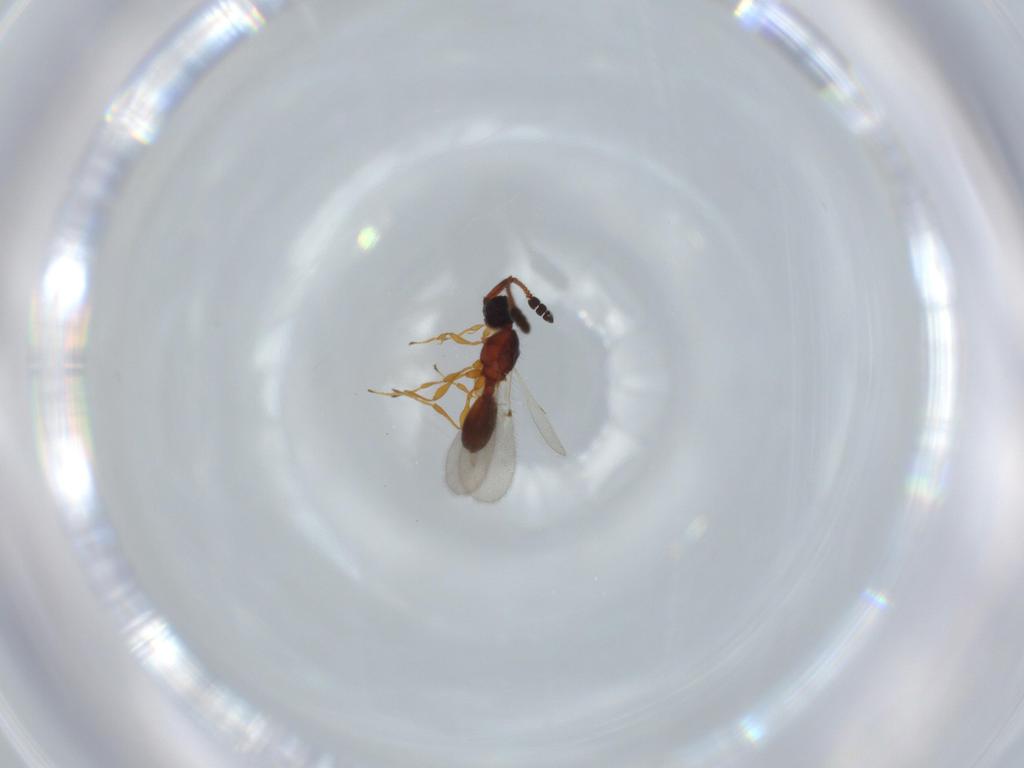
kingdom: Animalia
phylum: Arthropoda
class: Insecta
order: Hymenoptera
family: Diapriidae
